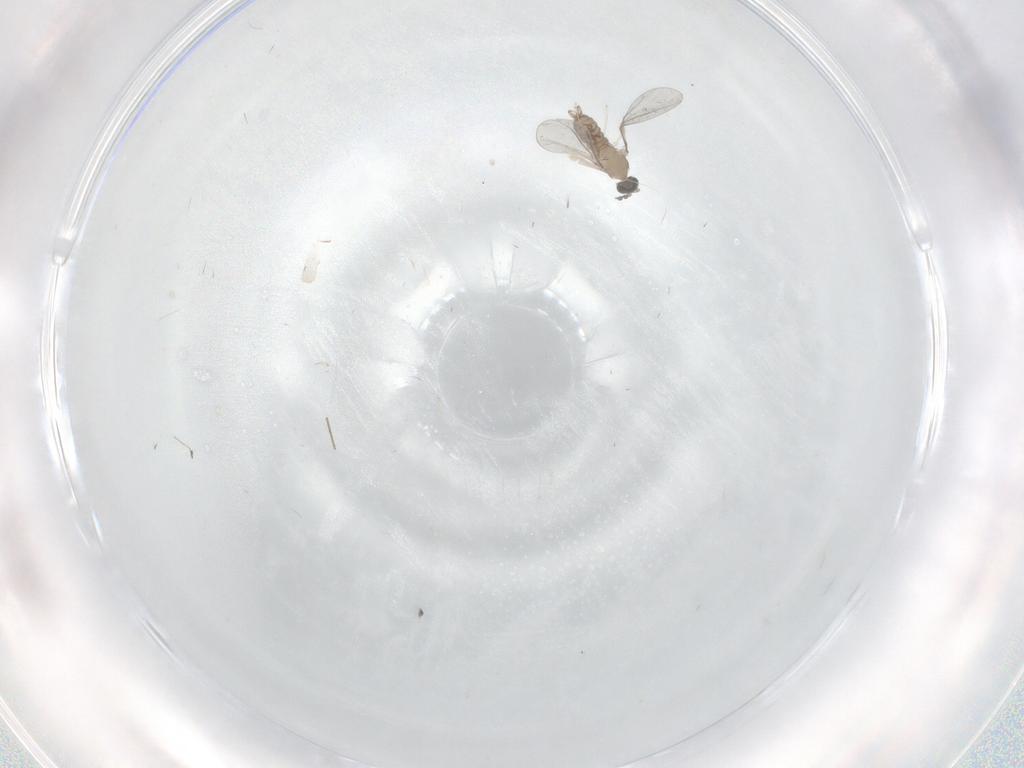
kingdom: Animalia
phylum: Arthropoda
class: Insecta
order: Diptera
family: Cecidomyiidae
